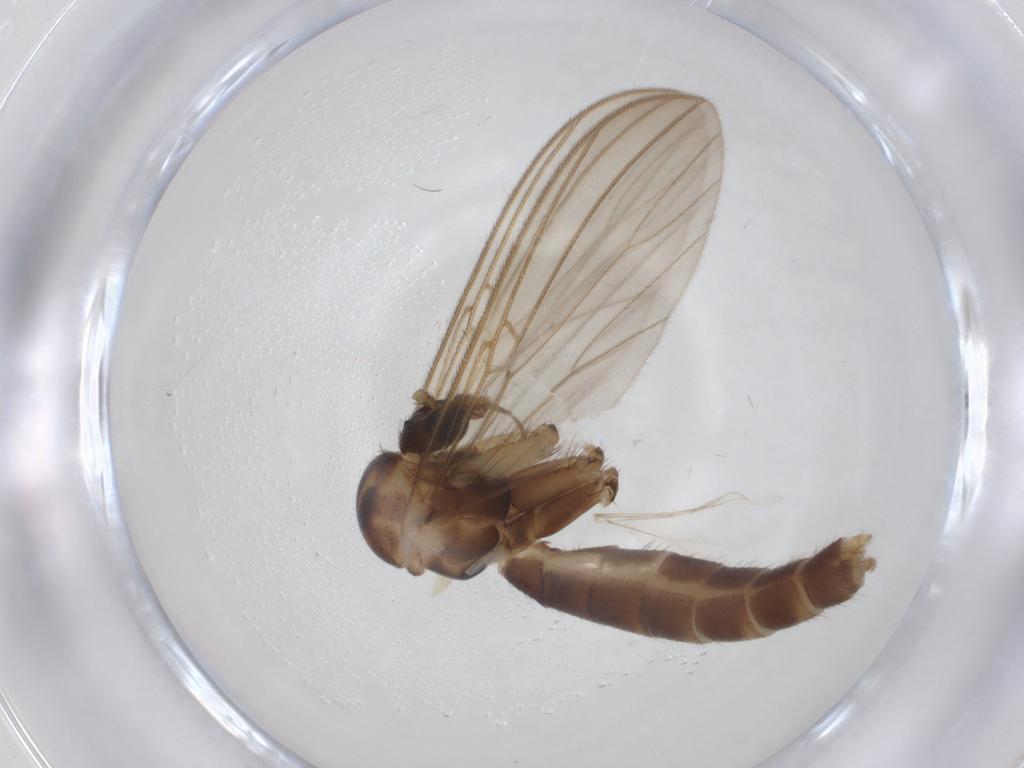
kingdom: Animalia
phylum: Arthropoda
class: Insecta
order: Diptera
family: Mycetophilidae
